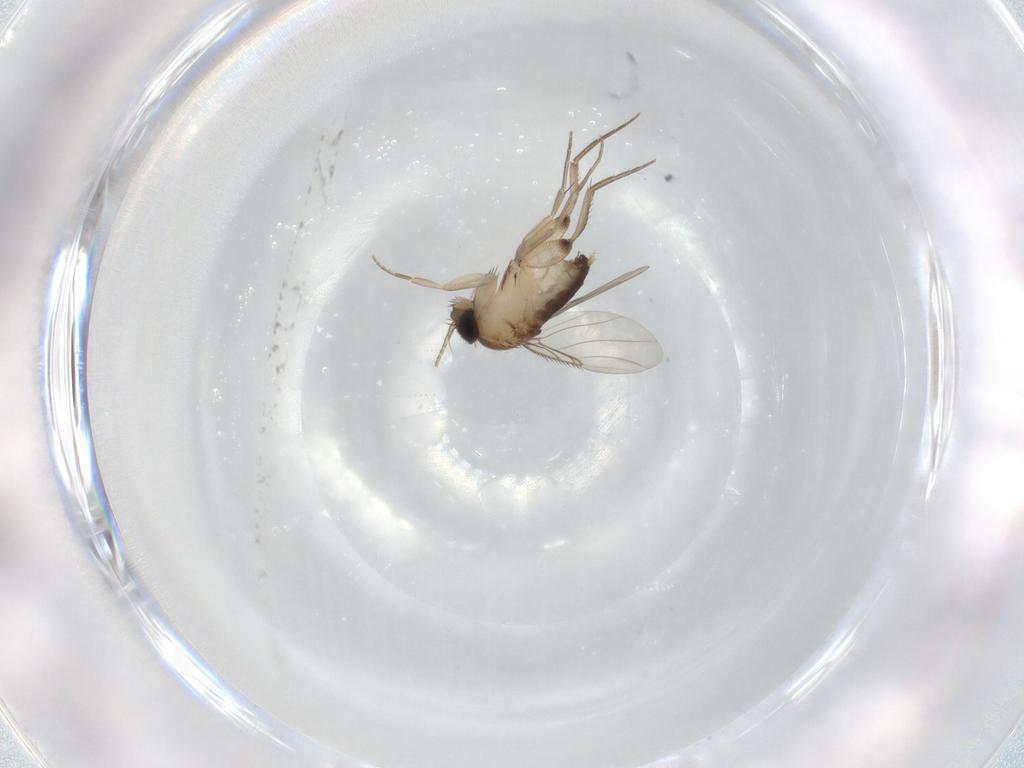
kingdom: Animalia
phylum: Arthropoda
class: Insecta
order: Diptera
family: Phoridae
